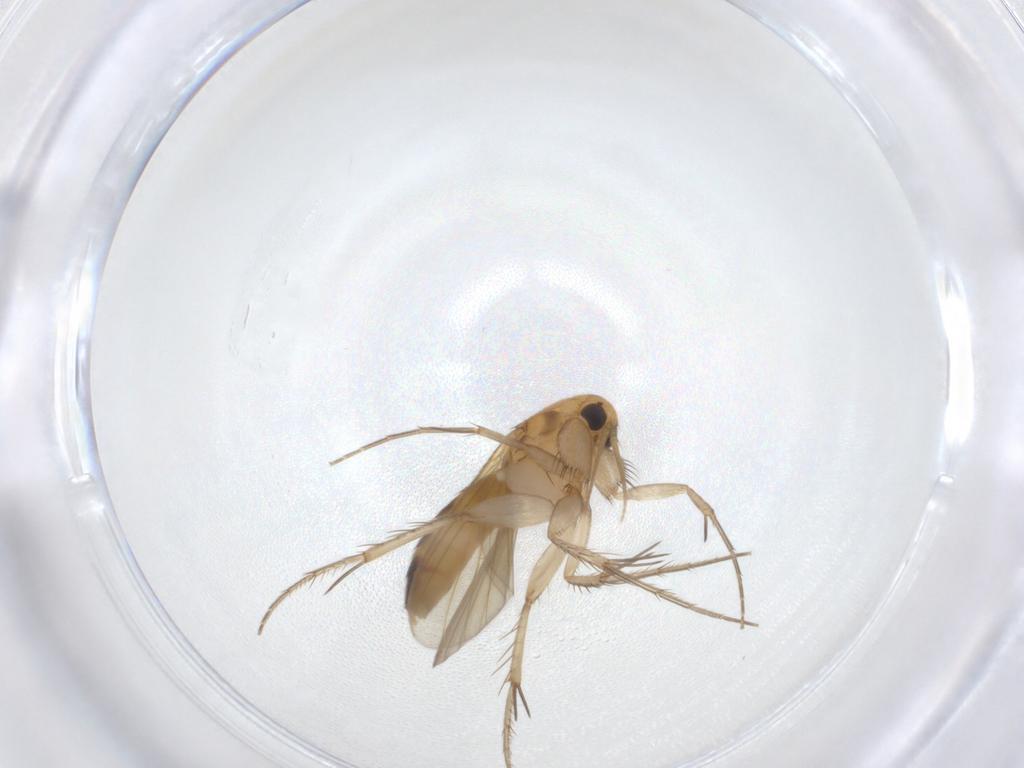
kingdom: Animalia
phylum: Arthropoda
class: Insecta
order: Diptera
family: Mycetophilidae
